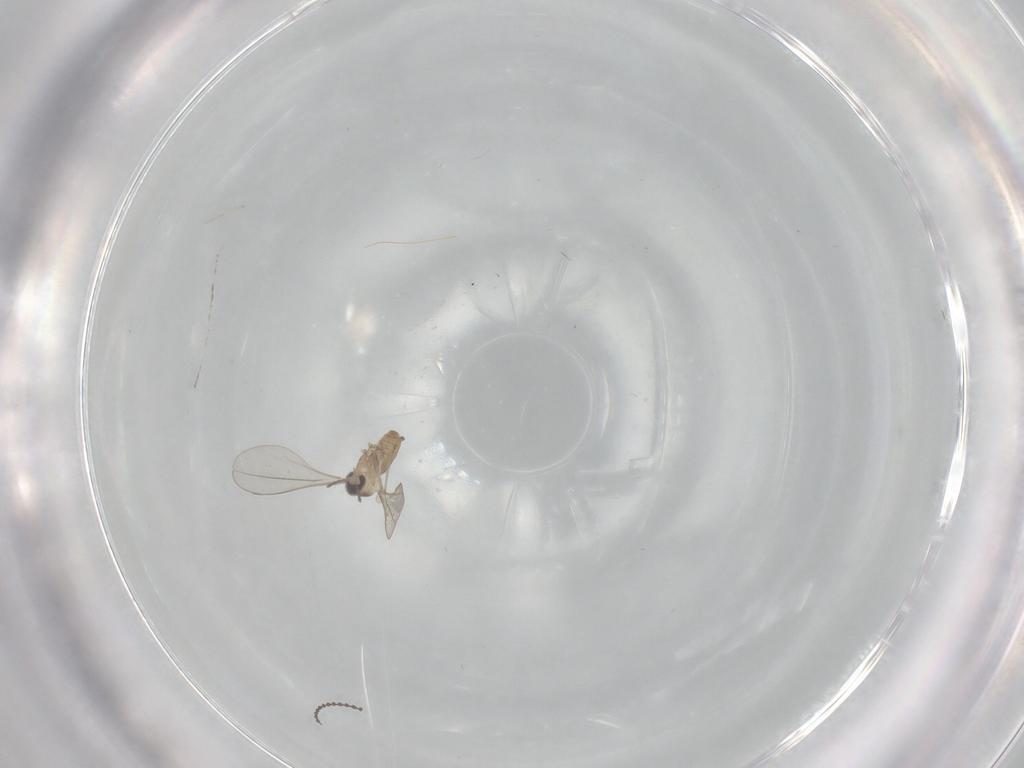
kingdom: Animalia
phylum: Arthropoda
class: Insecta
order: Diptera
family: Cecidomyiidae
